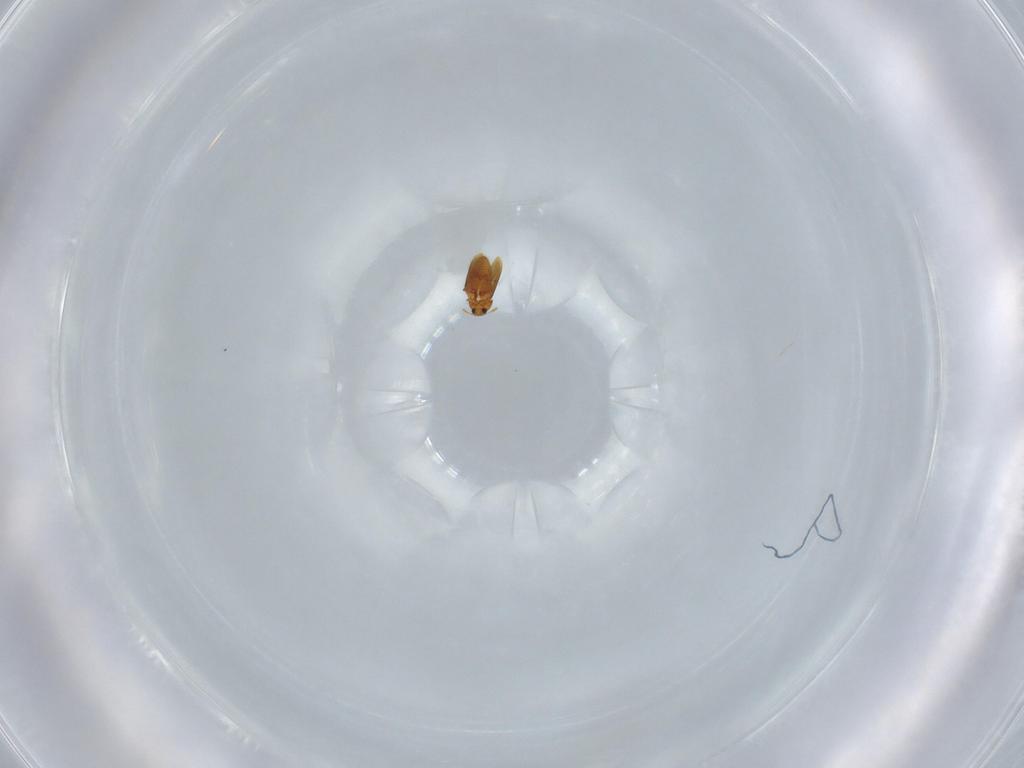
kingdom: Animalia
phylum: Arthropoda
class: Insecta
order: Coleoptera
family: Ptiliidae
